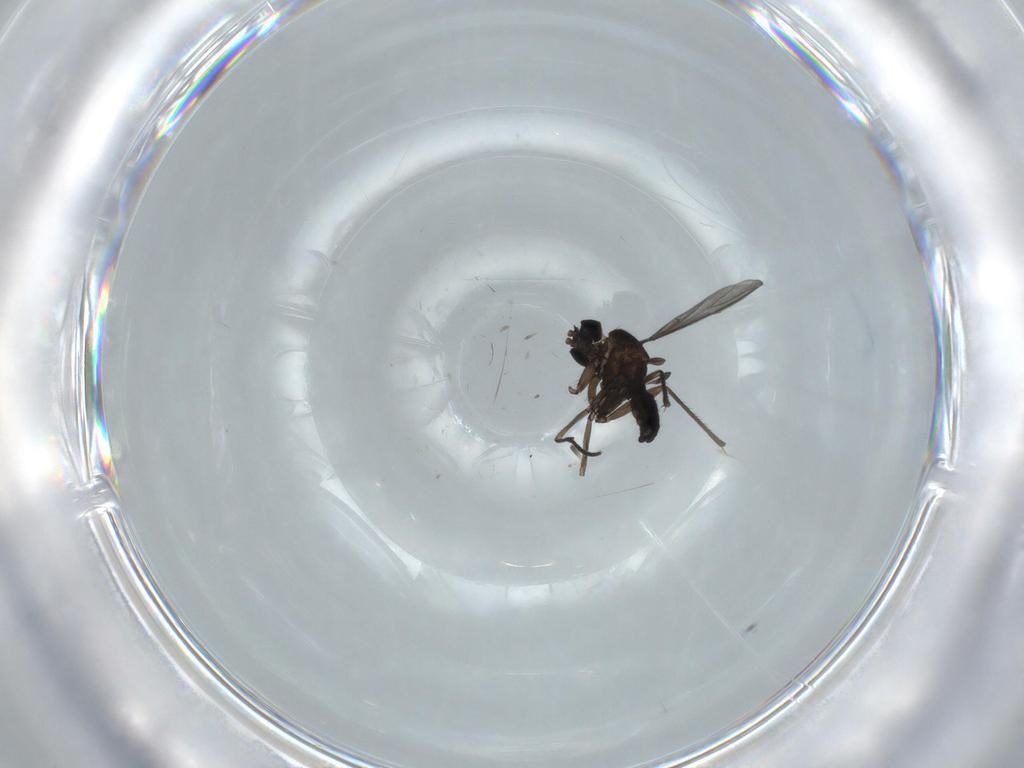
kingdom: Animalia
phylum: Arthropoda
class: Insecta
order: Diptera
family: Sciaridae
